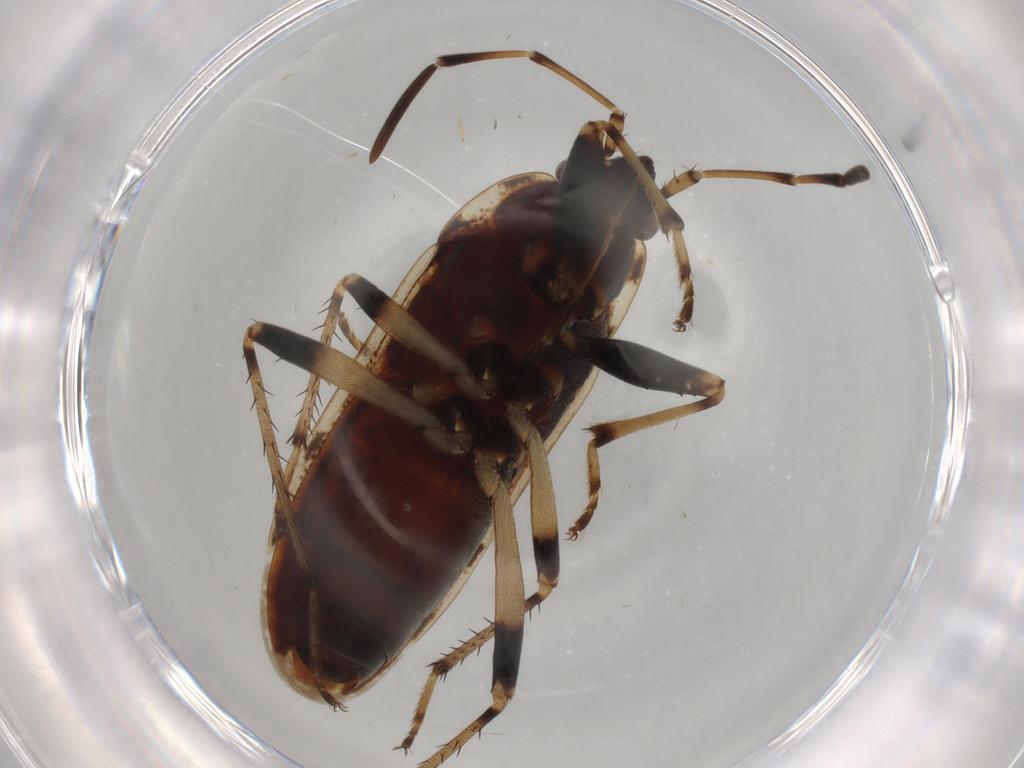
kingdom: Animalia
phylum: Arthropoda
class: Insecta
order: Hemiptera
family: Rhyparochromidae
